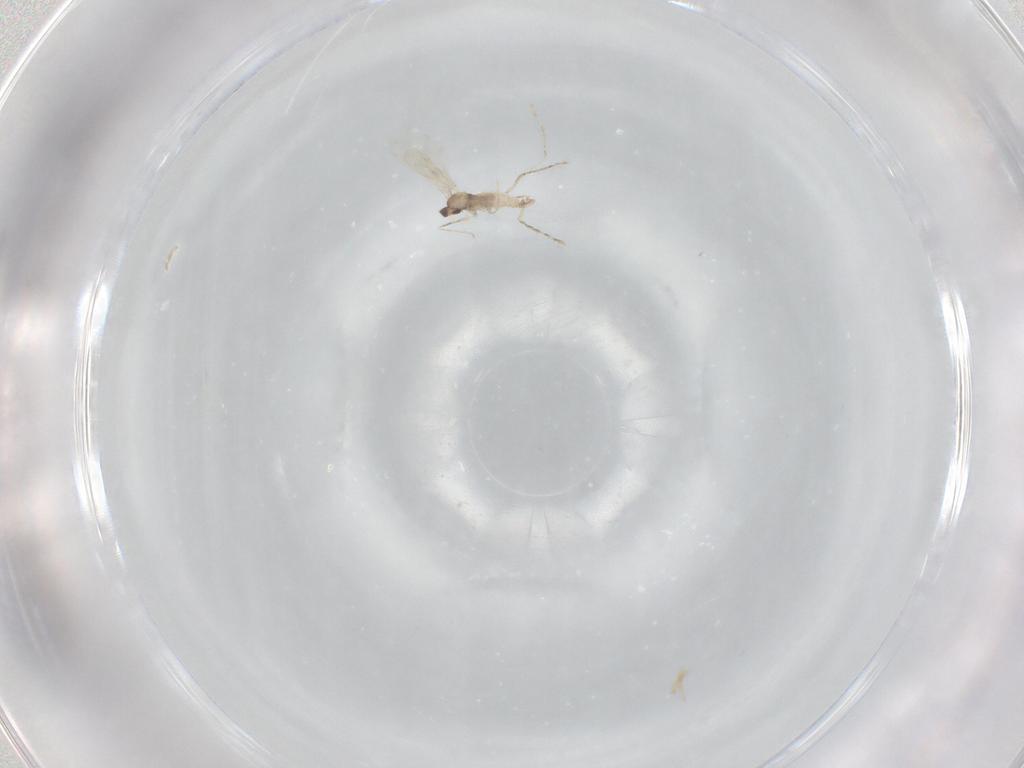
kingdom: Animalia
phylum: Arthropoda
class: Insecta
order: Diptera
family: Cecidomyiidae
